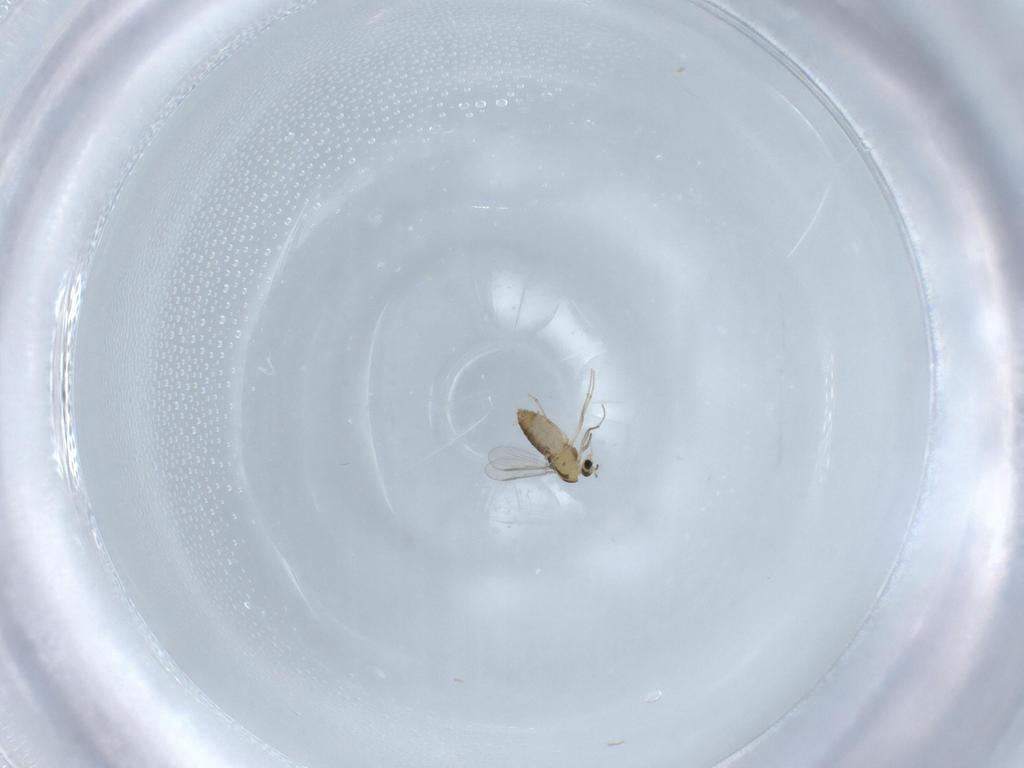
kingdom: Animalia
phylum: Arthropoda
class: Insecta
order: Diptera
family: Chironomidae
